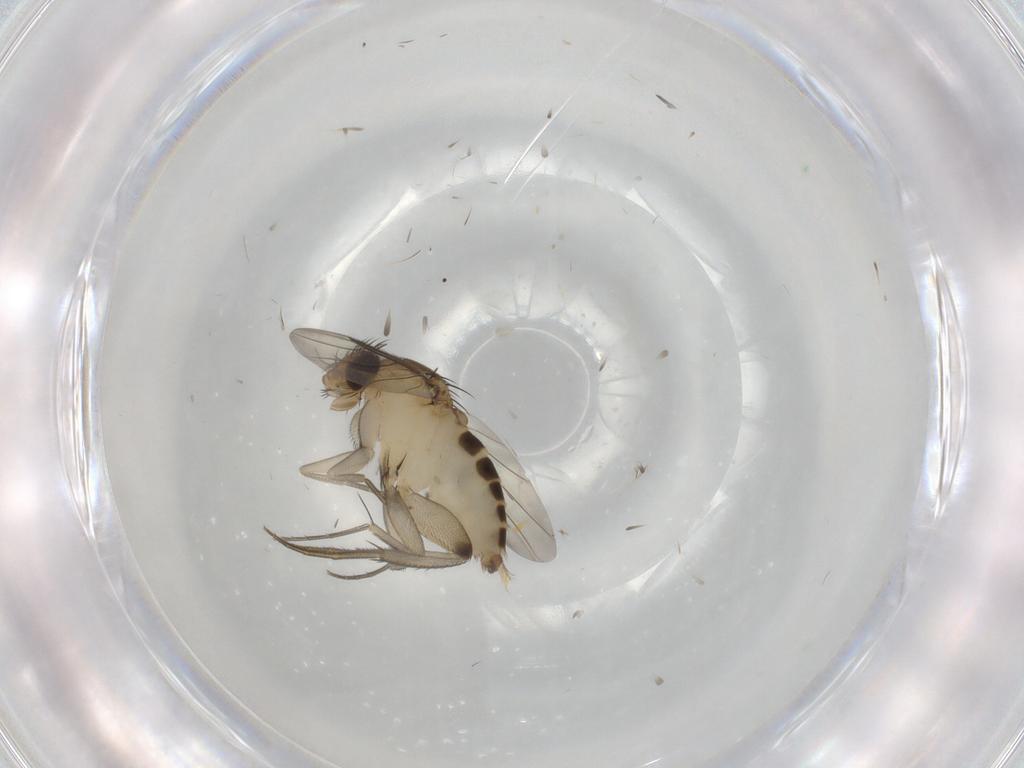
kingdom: Animalia
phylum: Arthropoda
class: Insecta
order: Diptera
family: Phoridae
